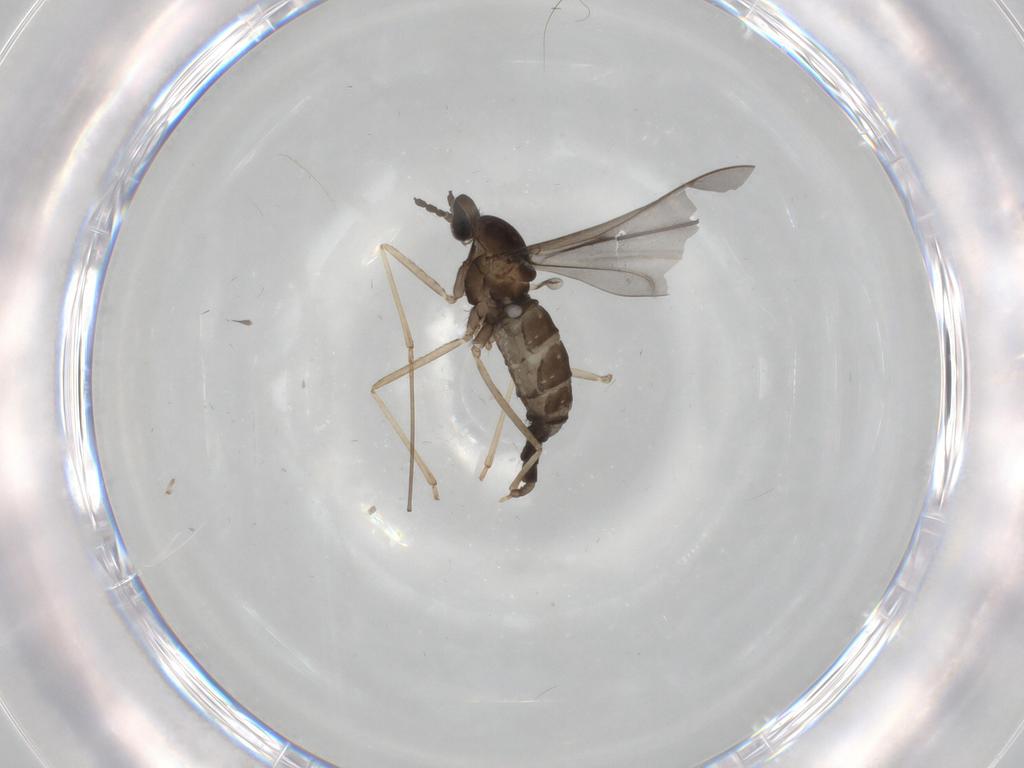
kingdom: Animalia
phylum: Arthropoda
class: Insecta
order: Diptera
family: Cecidomyiidae
